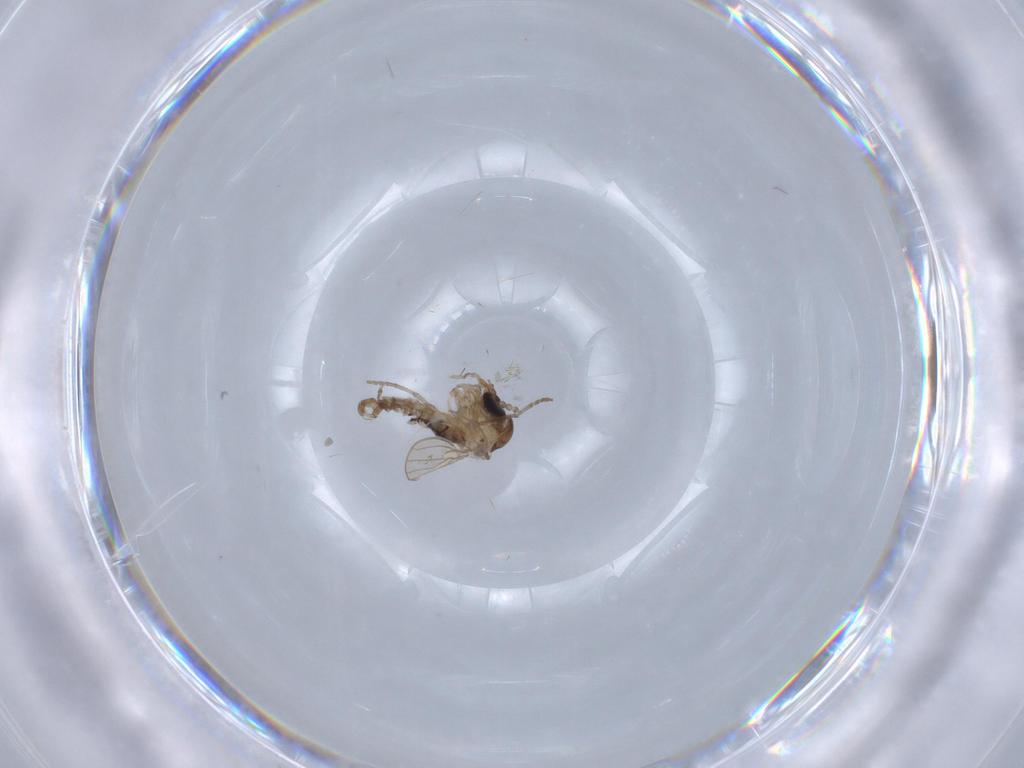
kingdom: Animalia
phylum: Arthropoda
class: Insecta
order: Diptera
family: Psychodidae
